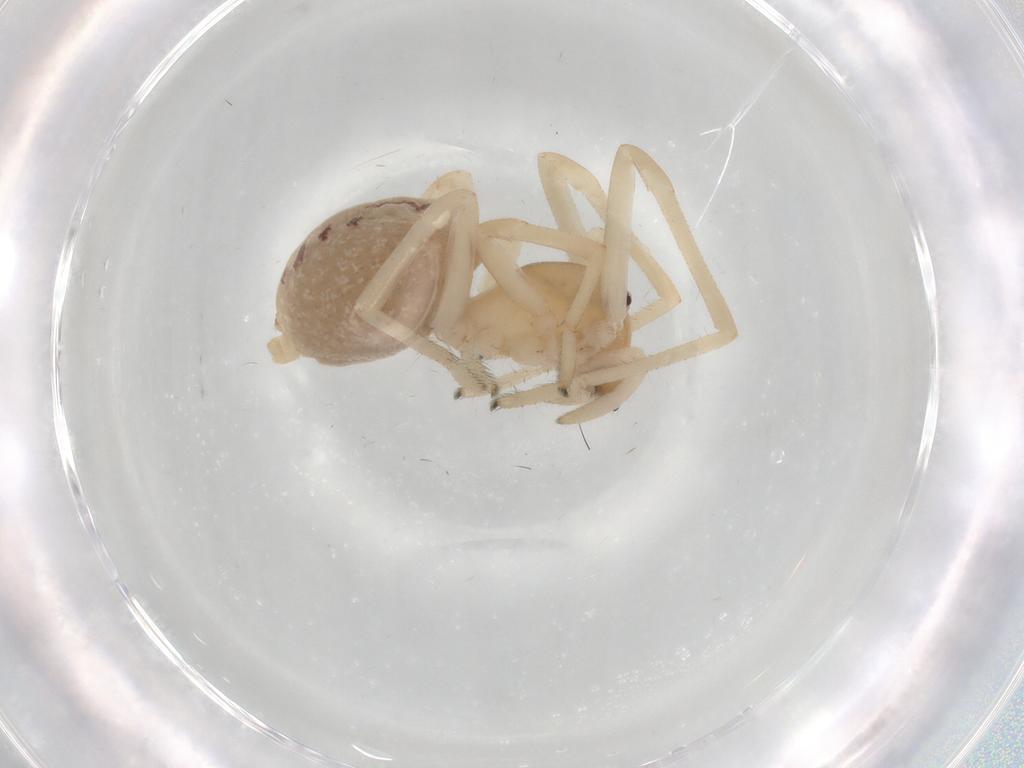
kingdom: Animalia
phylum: Arthropoda
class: Arachnida
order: Araneae
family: Cheiracanthiidae
